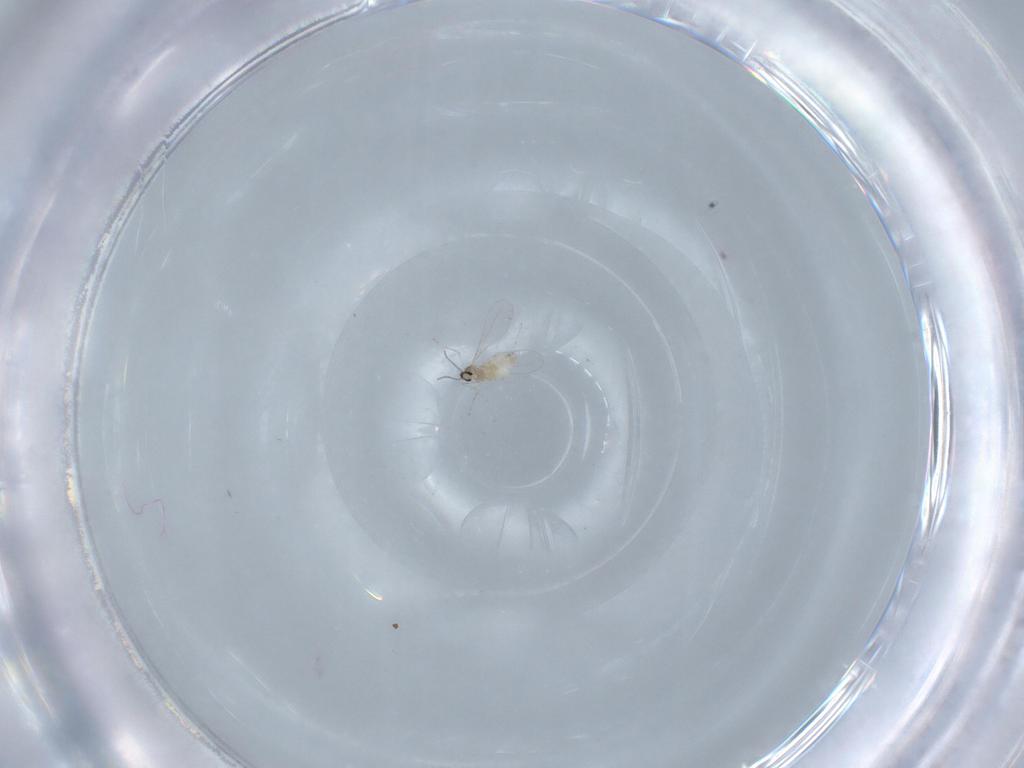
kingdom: Animalia
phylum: Arthropoda
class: Insecta
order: Diptera
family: Cecidomyiidae
